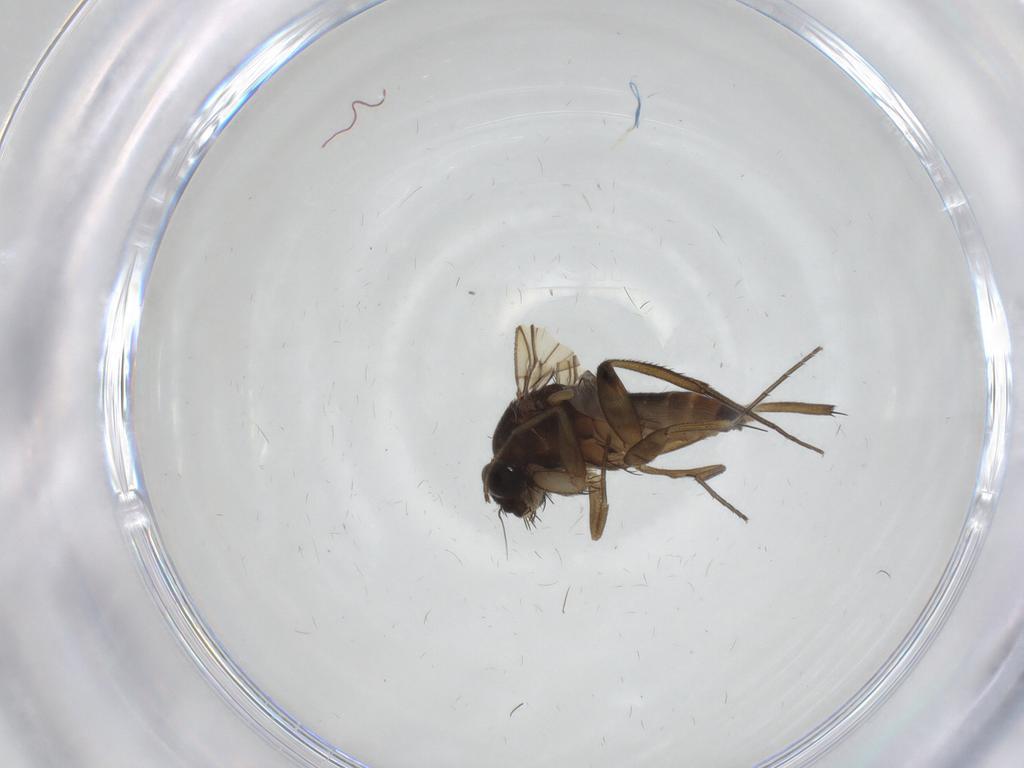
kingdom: Animalia
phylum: Arthropoda
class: Insecta
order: Diptera
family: Phoridae
